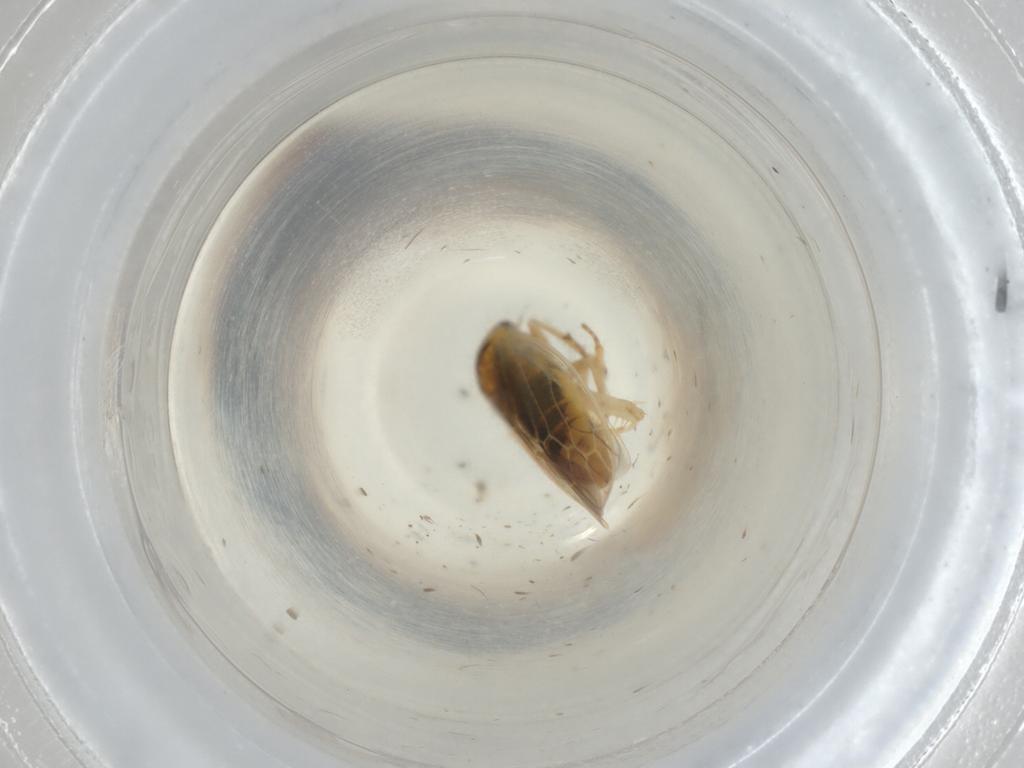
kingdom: Animalia
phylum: Arthropoda
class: Insecta
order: Hemiptera
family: Cicadellidae
